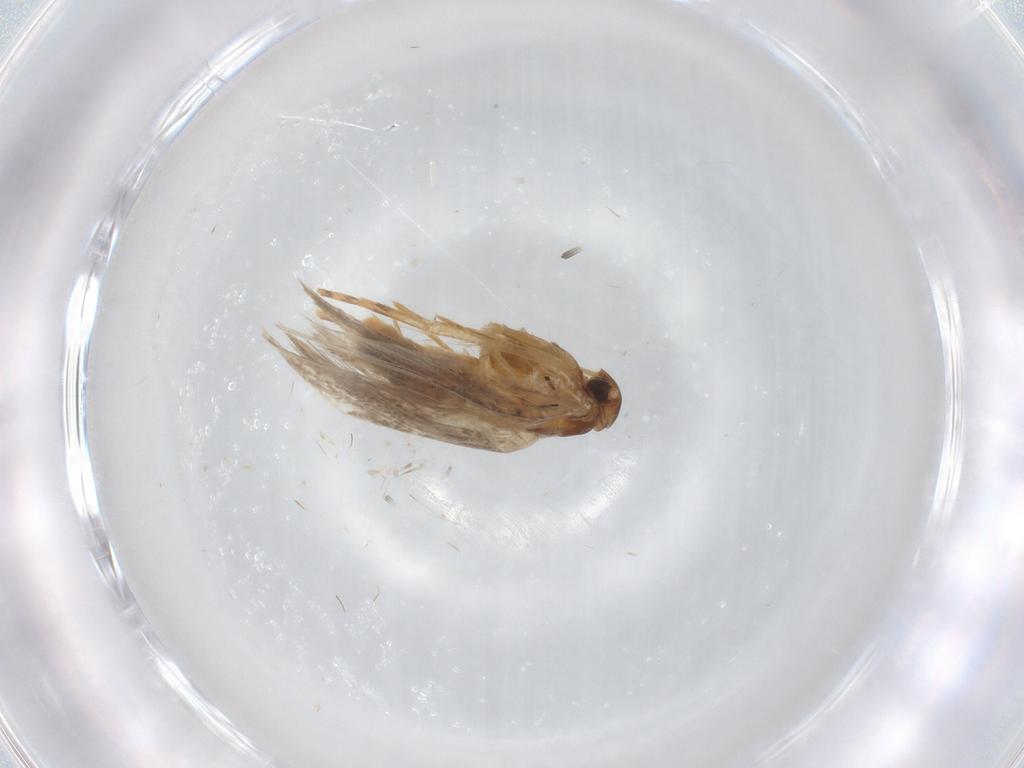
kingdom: Animalia
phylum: Arthropoda
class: Insecta
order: Lepidoptera
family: Gelechiidae
